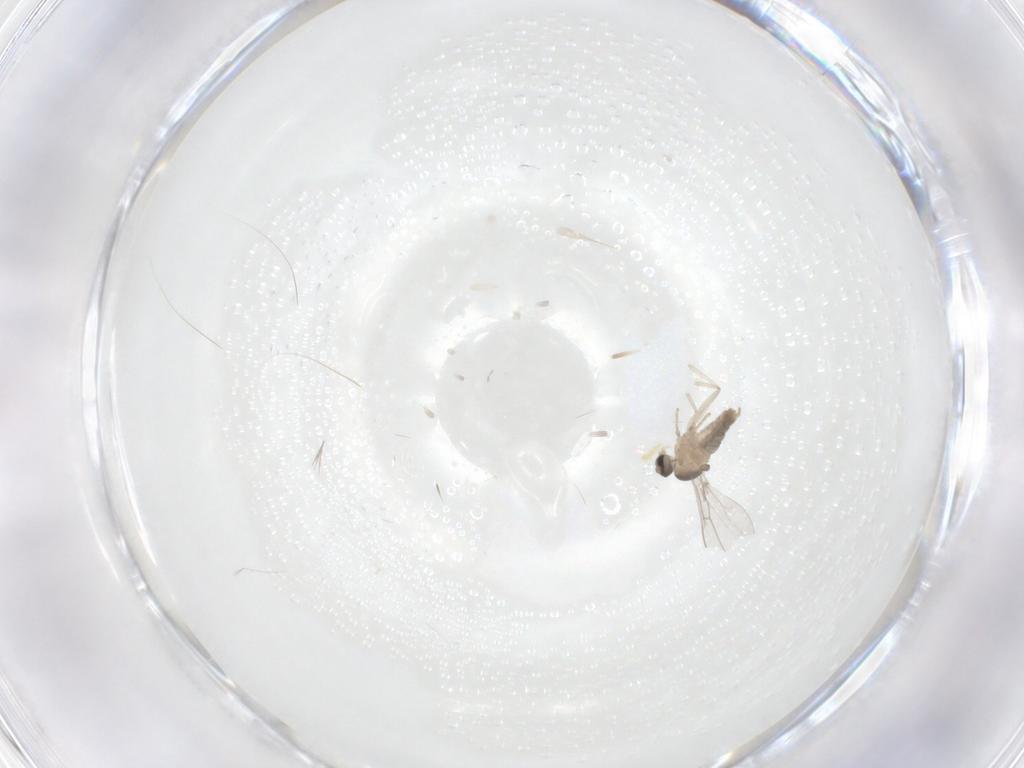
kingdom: Animalia
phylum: Arthropoda
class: Insecta
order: Diptera
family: Cecidomyiidae
